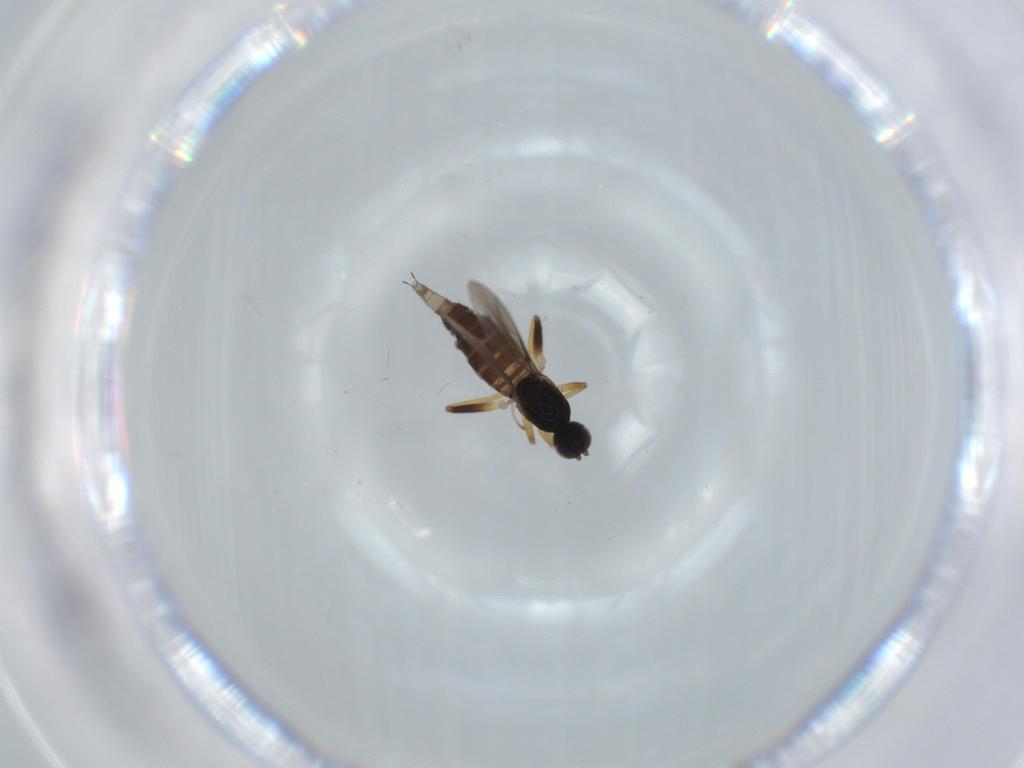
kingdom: Animalia
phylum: Arthropoda
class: Insecta
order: Diptera
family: Hybotidae
